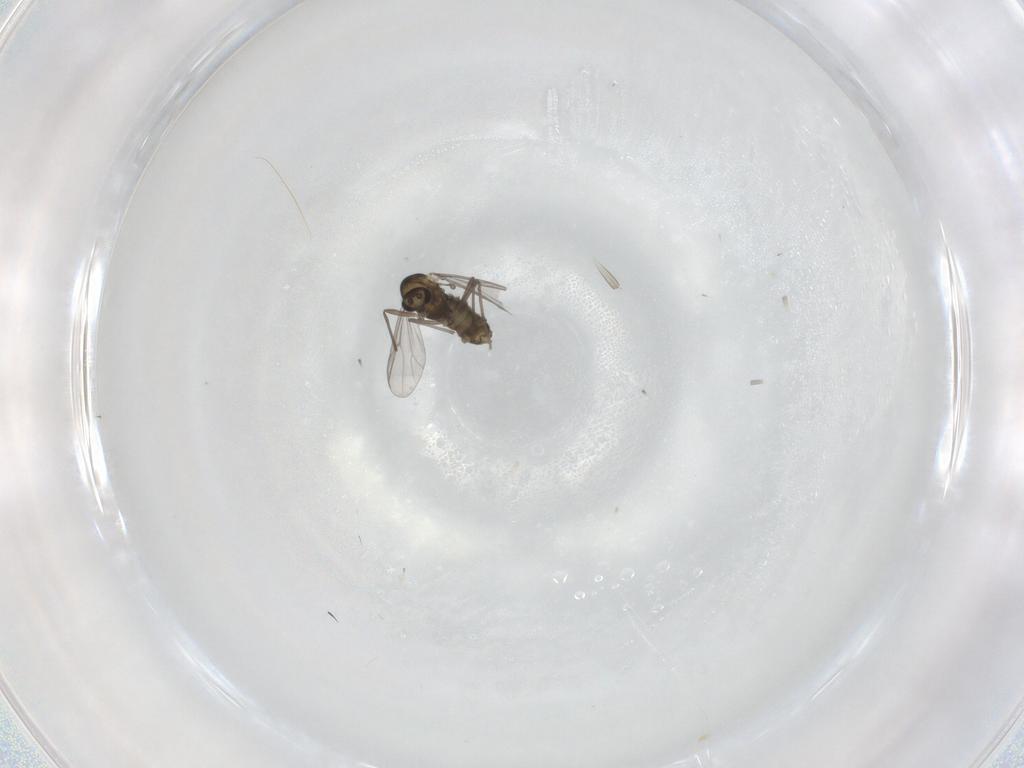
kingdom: Animalia
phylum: Arthropoda
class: Insecta
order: Diptera
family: Chironomidae
